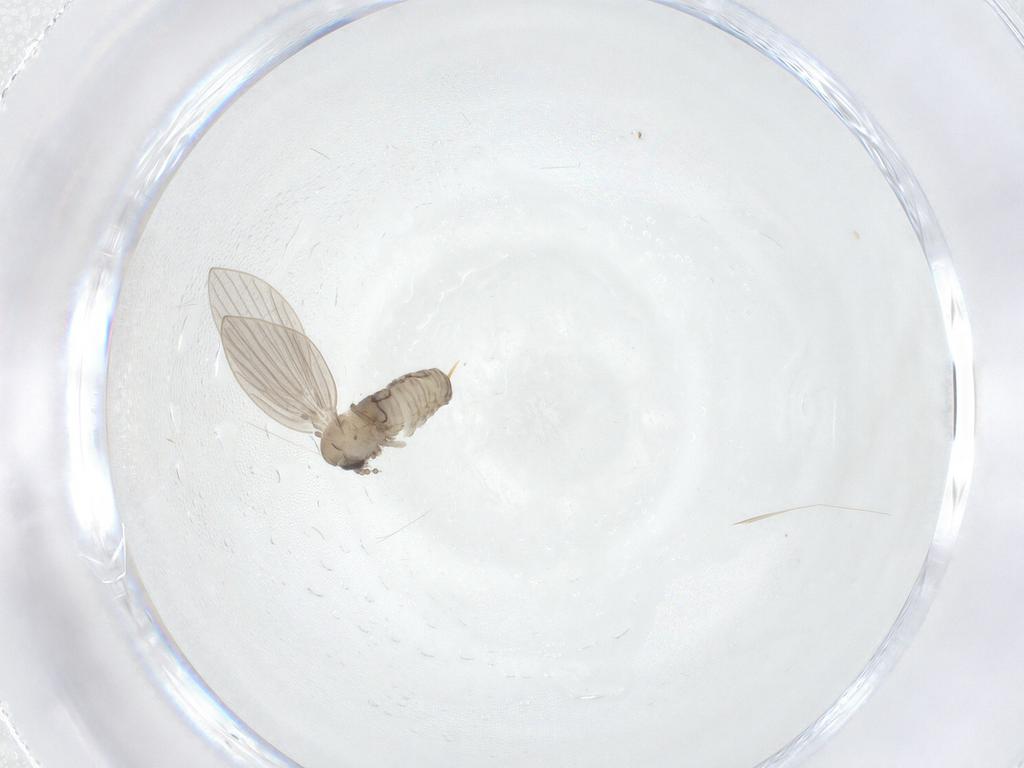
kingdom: Animalia
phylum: Arthropoda
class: Insecta
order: Diptera
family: Psychodidae
